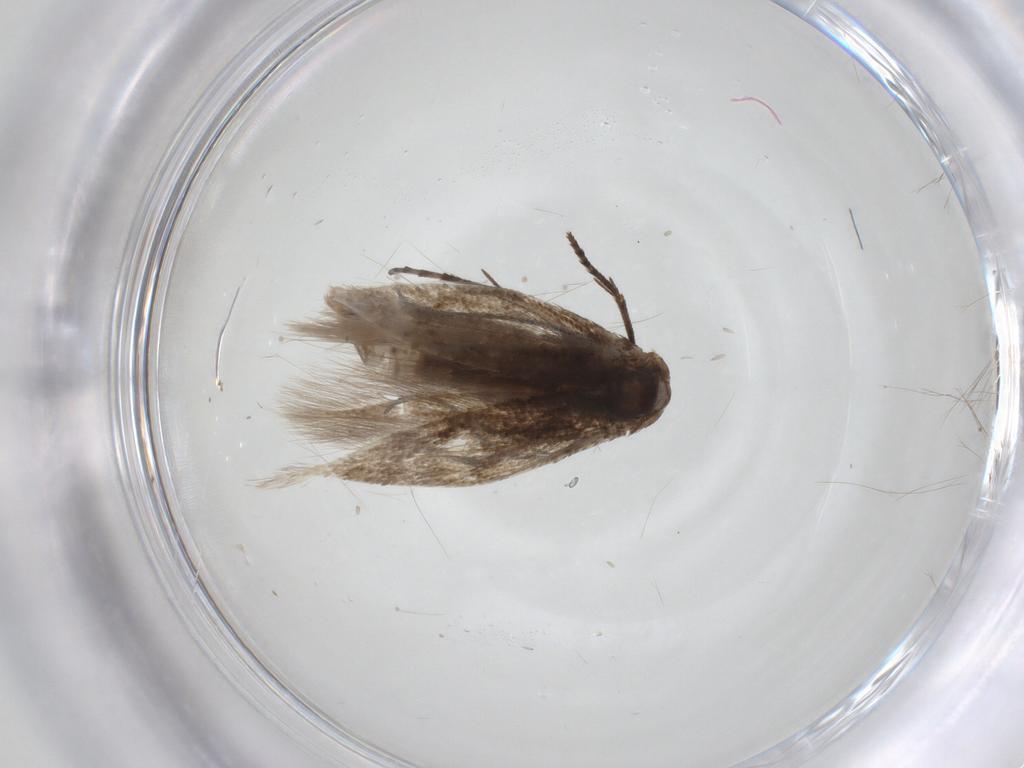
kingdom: Animalia
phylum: Arthropoda
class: Insecta
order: Lepidoptera
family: Bucculatricidae
